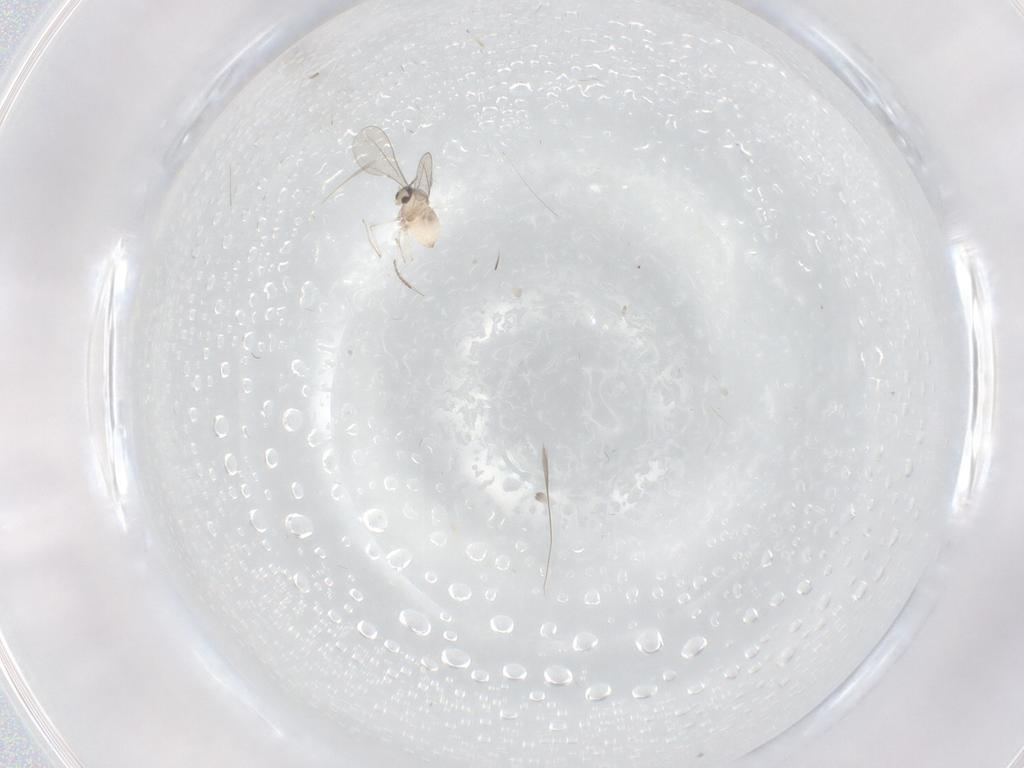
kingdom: Animalia
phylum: Arthropoda
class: Insecta
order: Diptera
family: Cecidomyiidae
